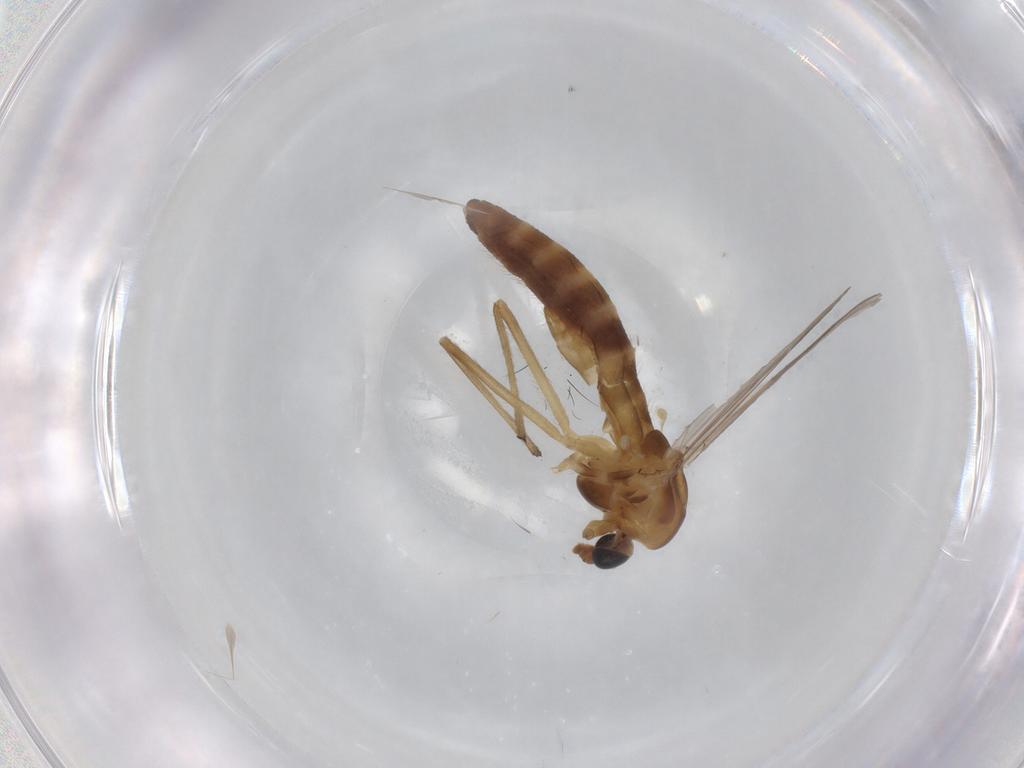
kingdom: Animalia
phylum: Arthropoda
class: Insecta
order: Diptera
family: Chironomidae
